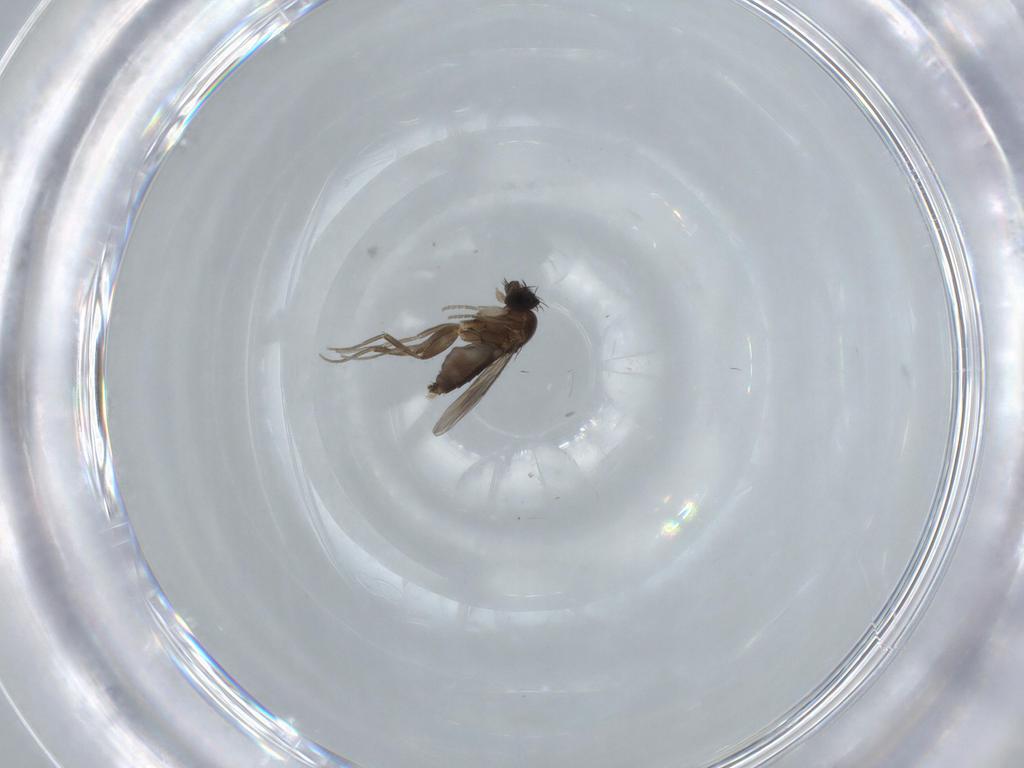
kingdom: Animalia
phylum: Arthropoda
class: Insecta
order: Diptera
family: Phoridae
